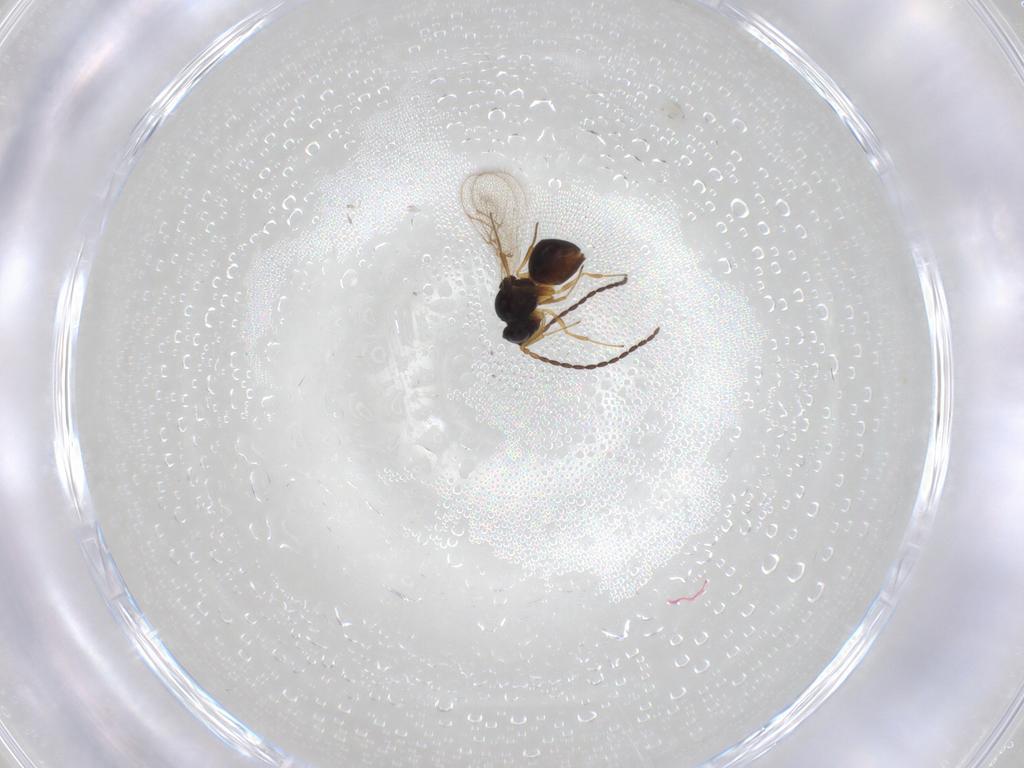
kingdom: Animalia
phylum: Arthropoda
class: Insecta
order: Hymenoptera
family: Figitidae
